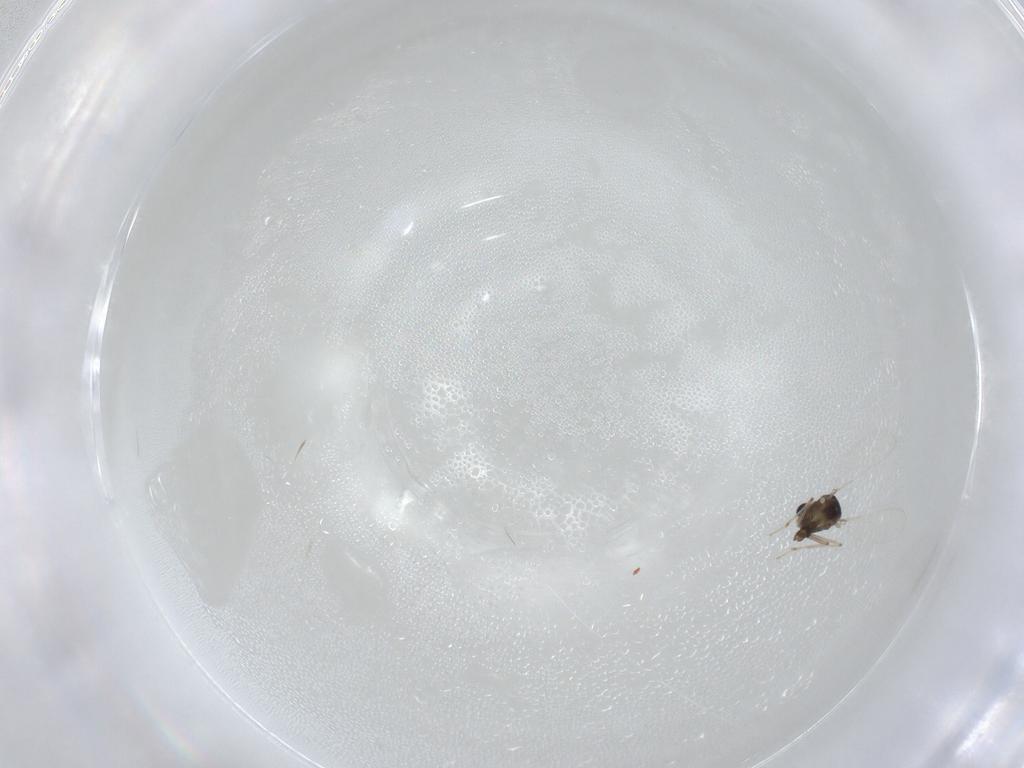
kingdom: Animalia
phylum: Arthropoda
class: Insecta
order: Diptera
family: Chironomidae
